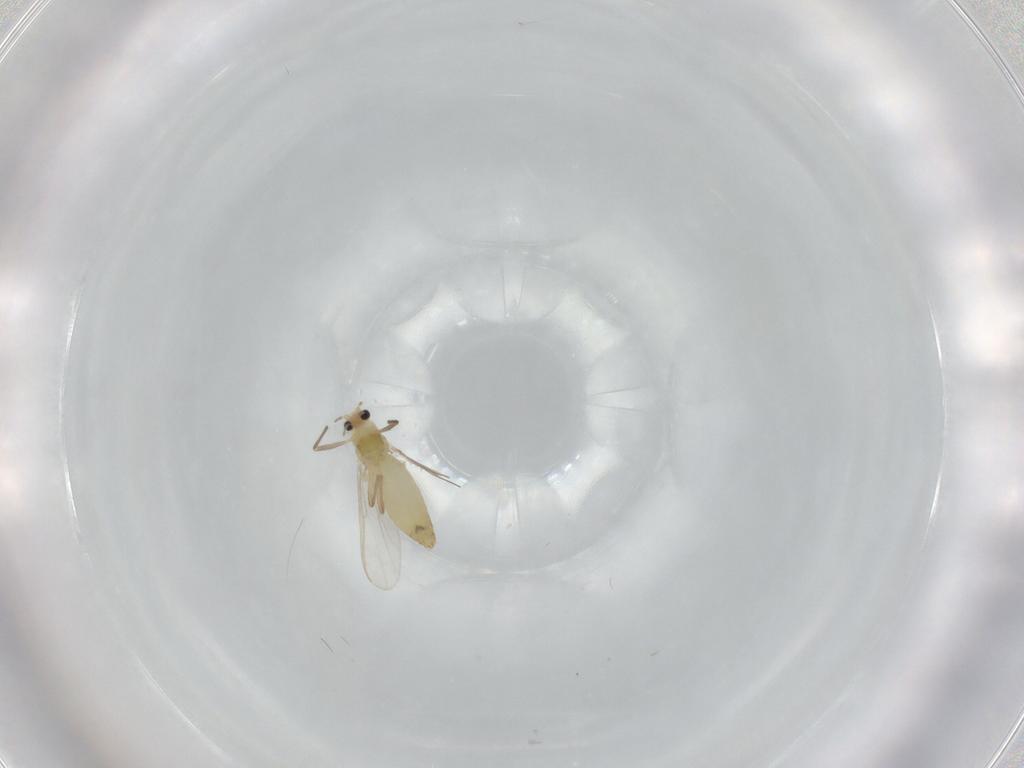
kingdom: Animalia
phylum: Arthropoda
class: Insecta
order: Diptera
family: Chironomidae
